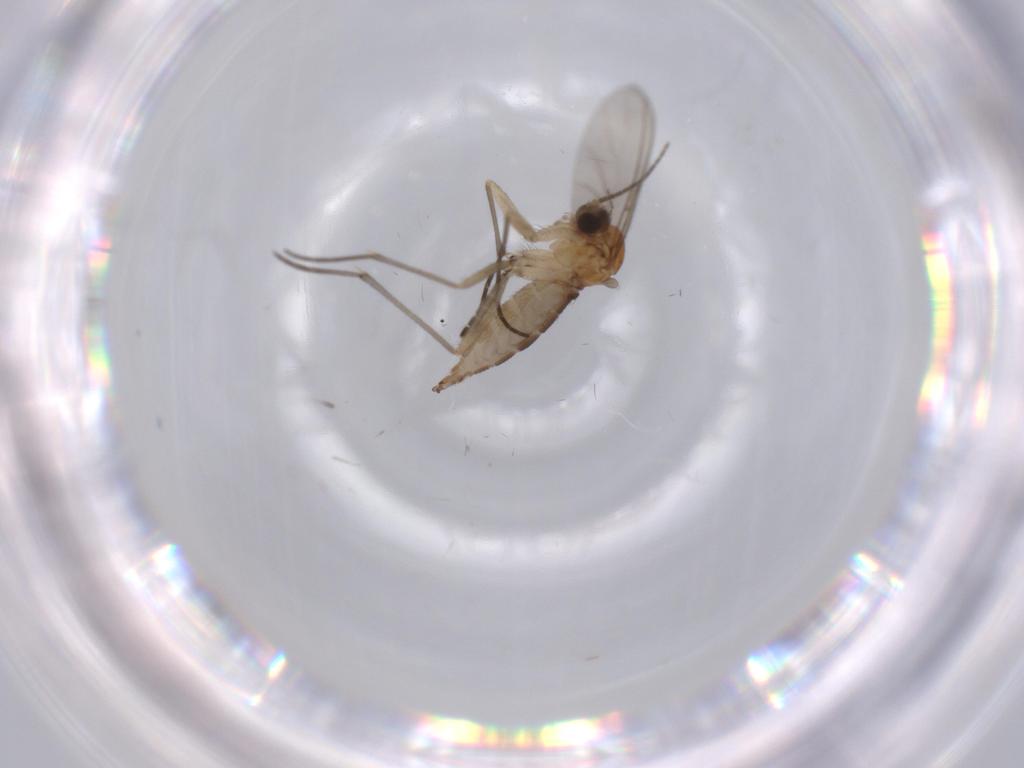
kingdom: Animalia
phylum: Arthropoda
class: Insecta
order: Diptera
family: Sciaridae
